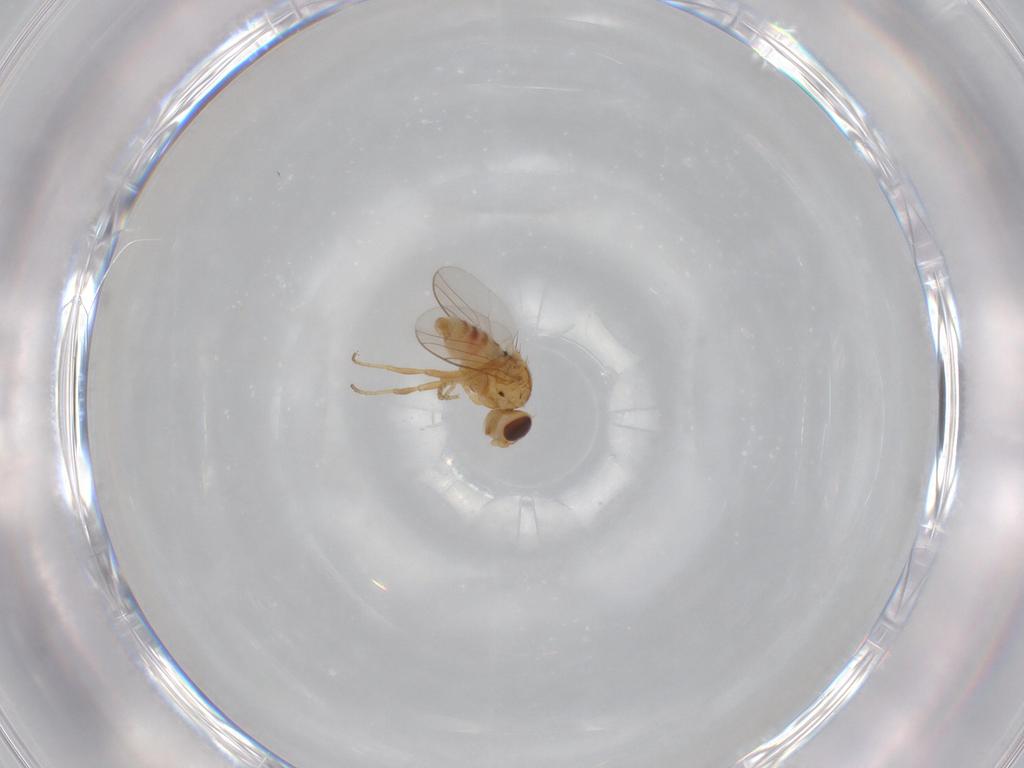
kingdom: Animalia
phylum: Arthropoda
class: Insecta
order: Diptera
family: Chloropidae
